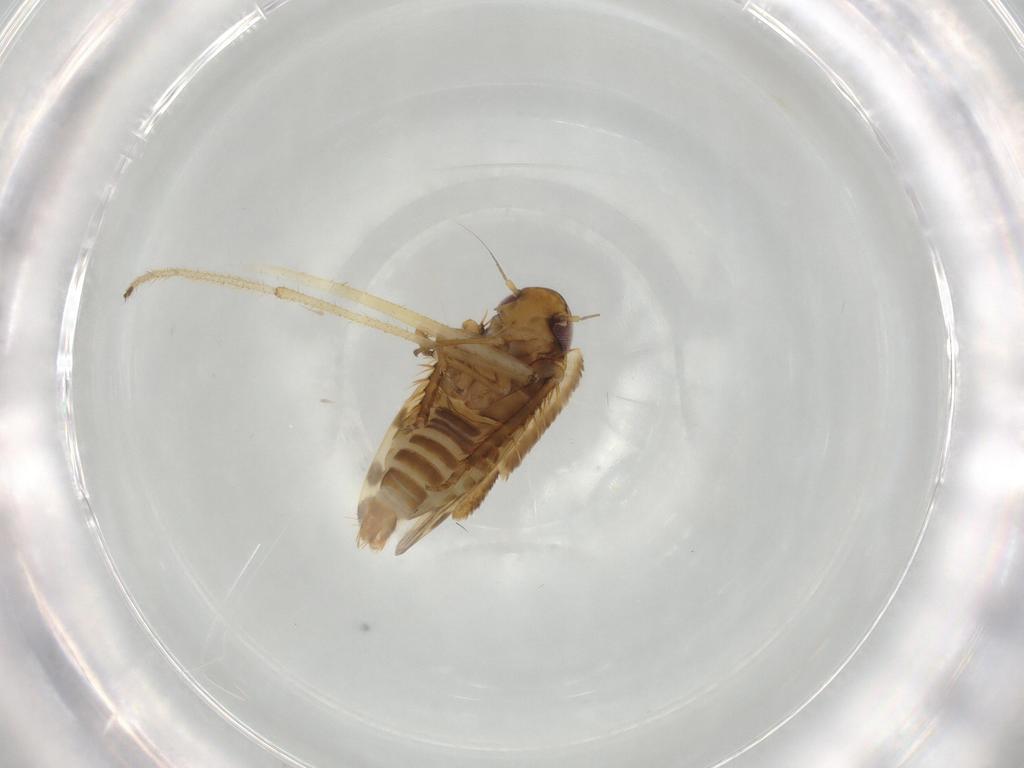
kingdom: Animalia
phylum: Arthropoda
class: Insecta
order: Hemiptera
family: Cicadellidae
